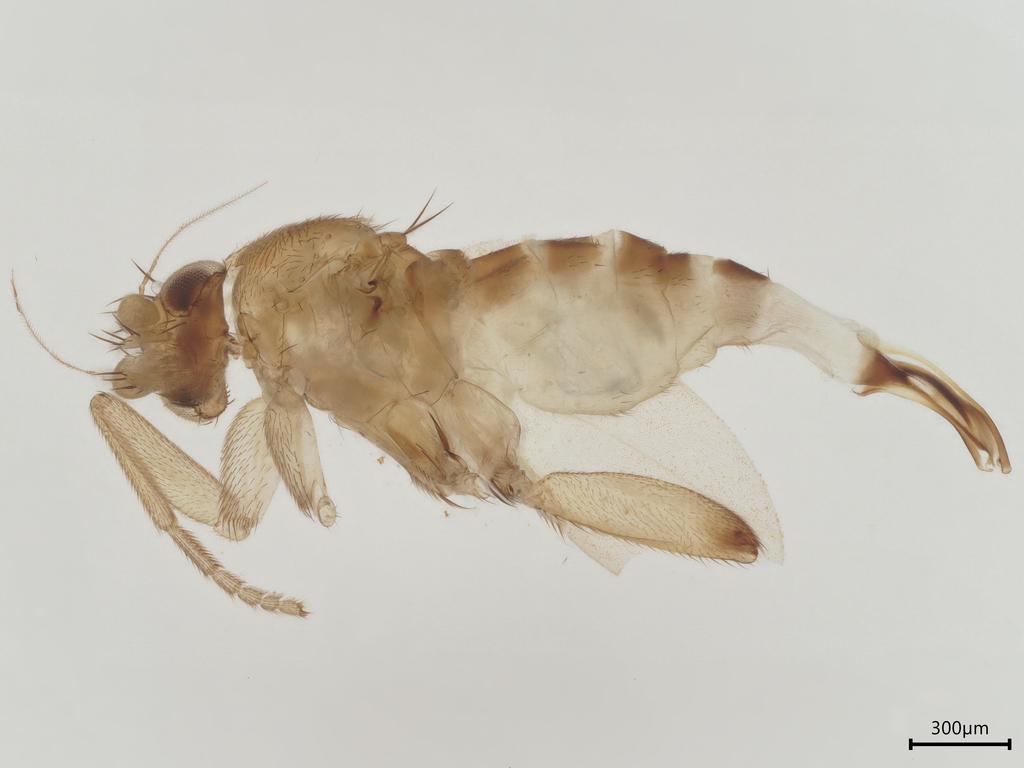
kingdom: Animalia
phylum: Arthropoda
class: Insecta
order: Diptera
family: Phoridae
